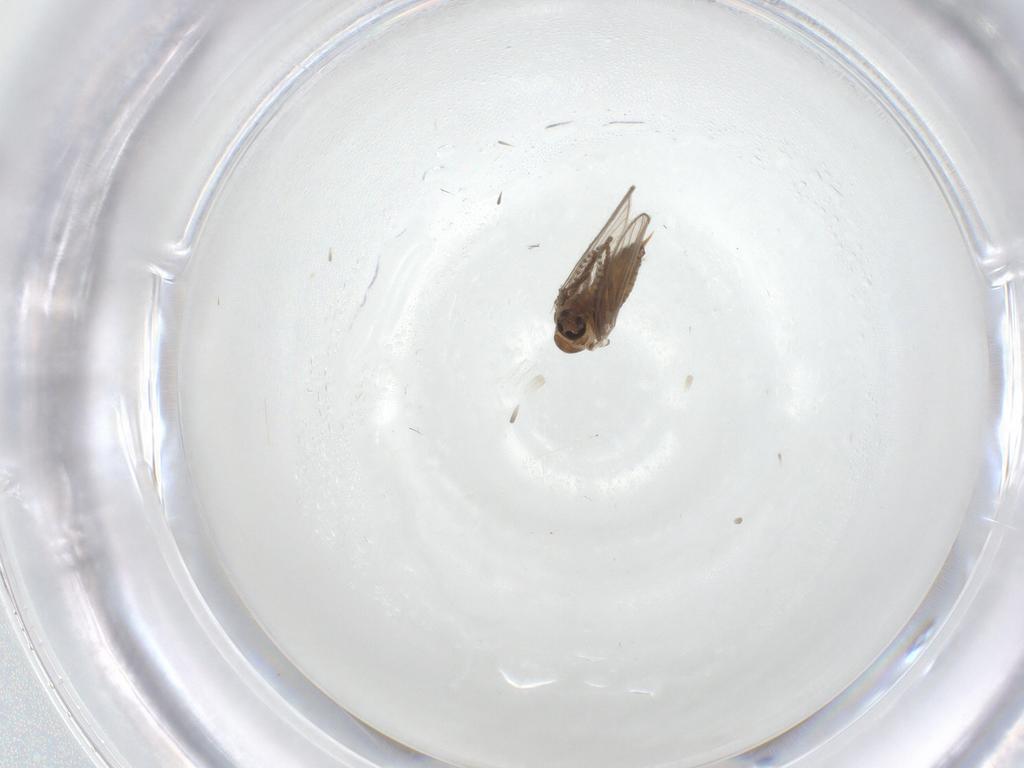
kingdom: Animalia
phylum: Arthropoda
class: Insecta
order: Diptera
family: Psychodidae
